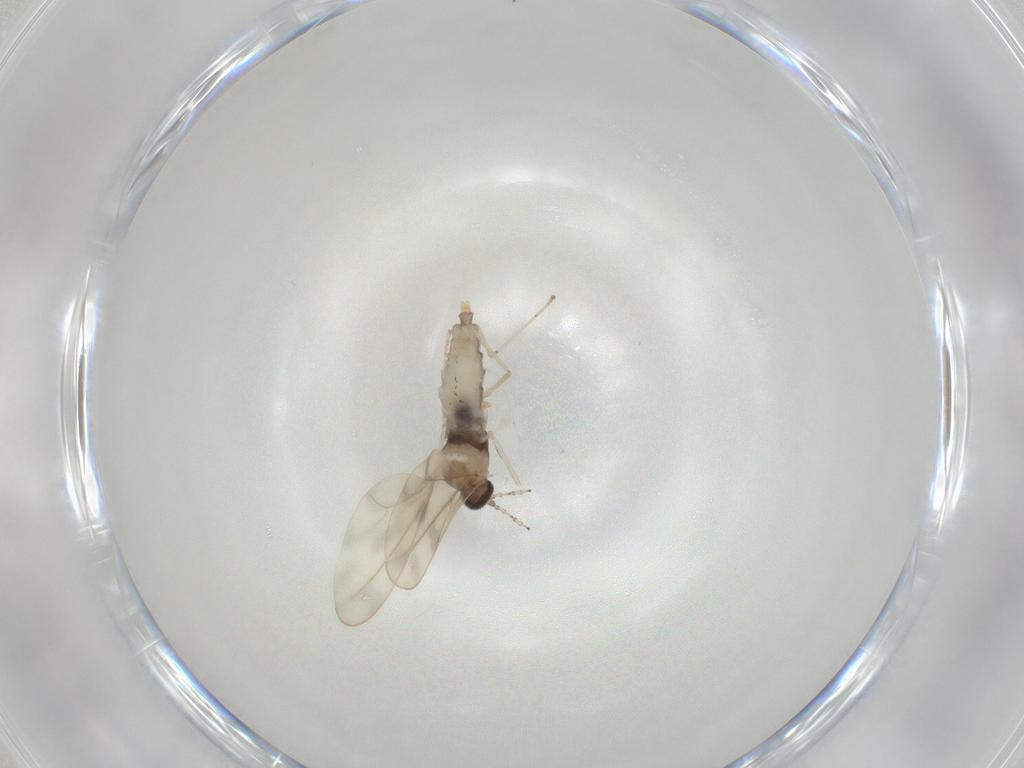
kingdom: Animalia
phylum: Arthropoda
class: Insecta
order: Diptera
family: Cecidomyiidae
